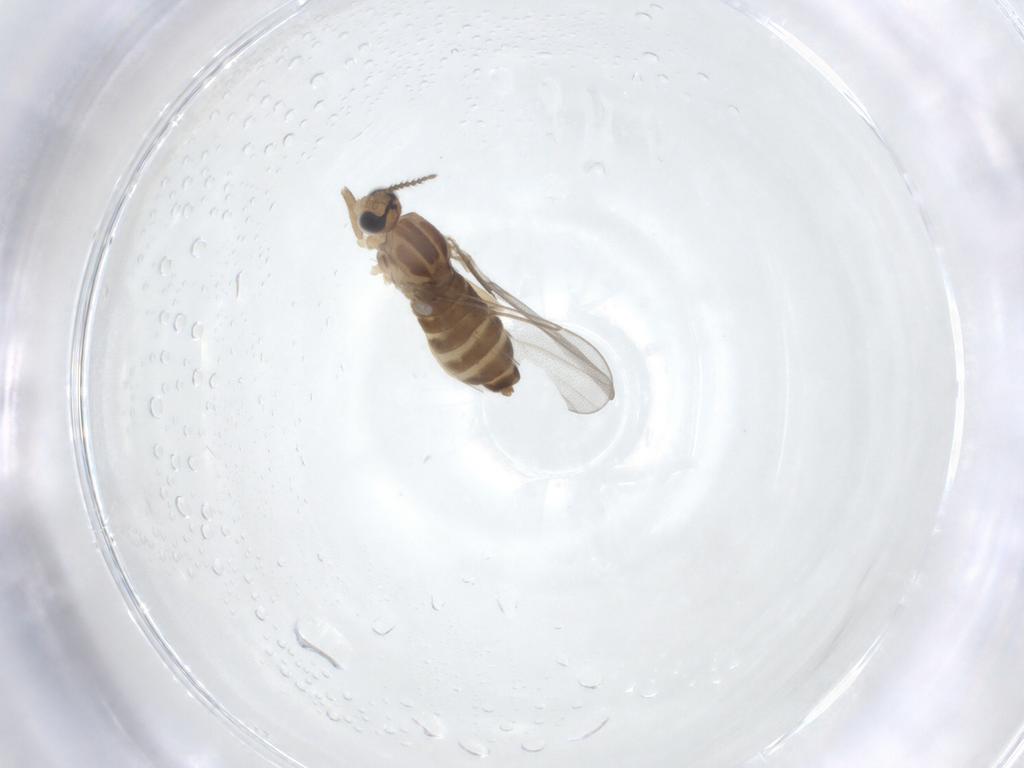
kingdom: Animalia
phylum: Arthropoda
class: Insecta
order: Diptera
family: Cecidomyiidae
